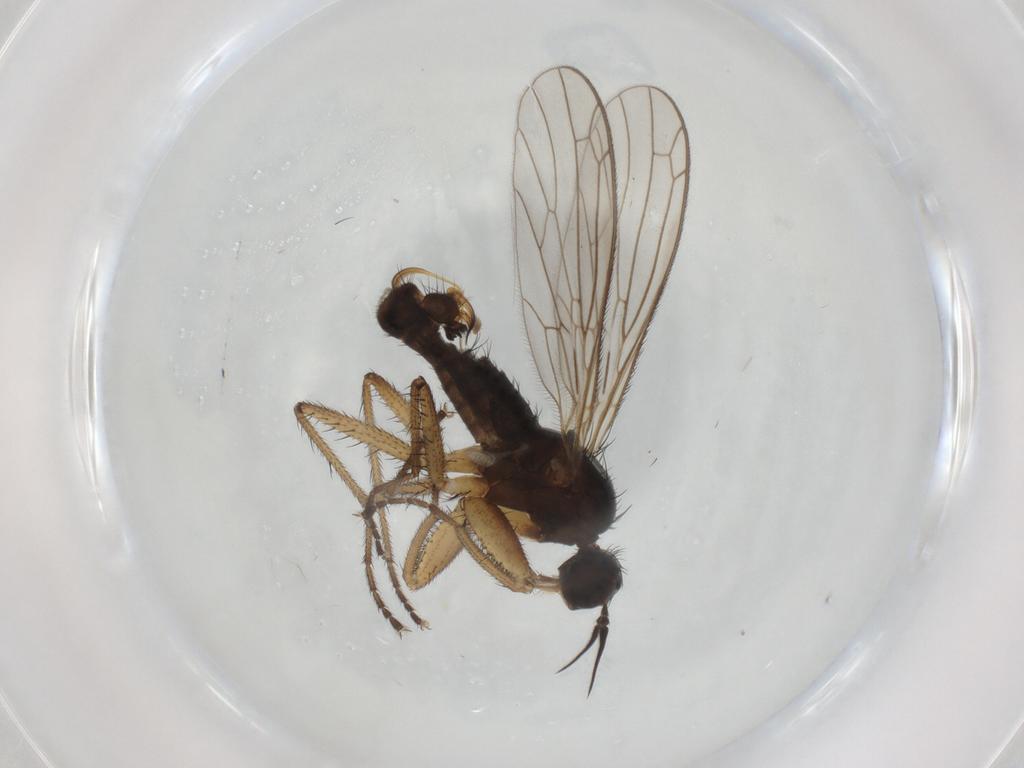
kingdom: Animalia
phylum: Arthropoda
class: Insecta
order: Diptera
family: Empididae
